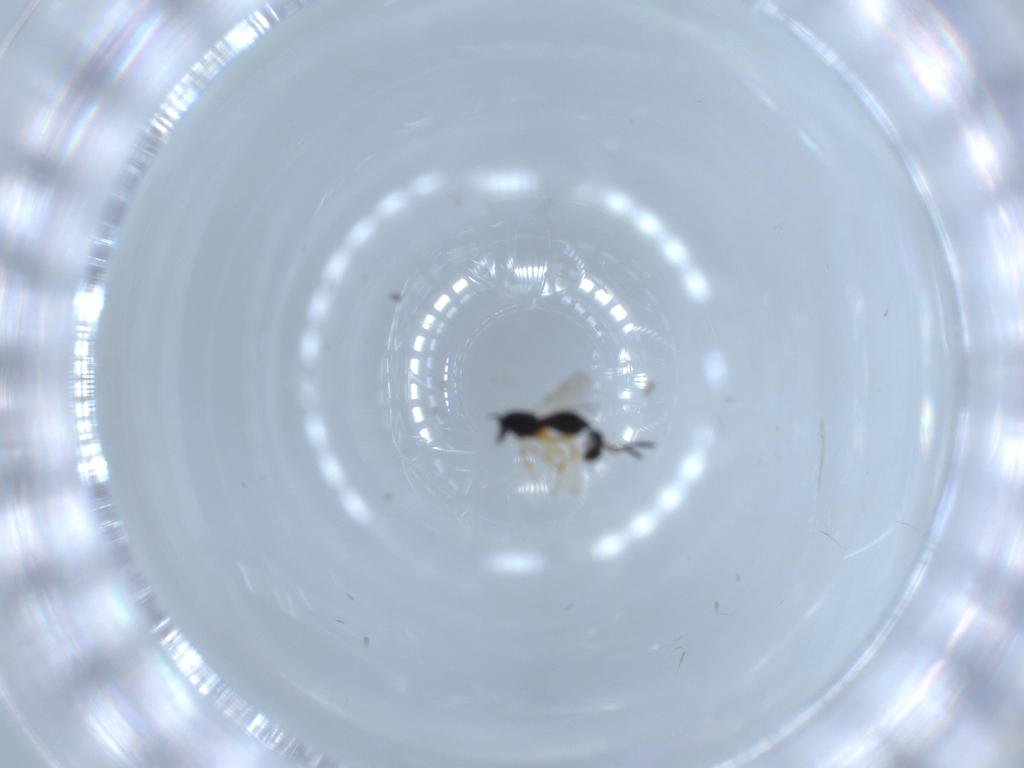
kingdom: Animalia
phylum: Arthropoda
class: Insecta
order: Hymenoptera
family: Scelionidae
